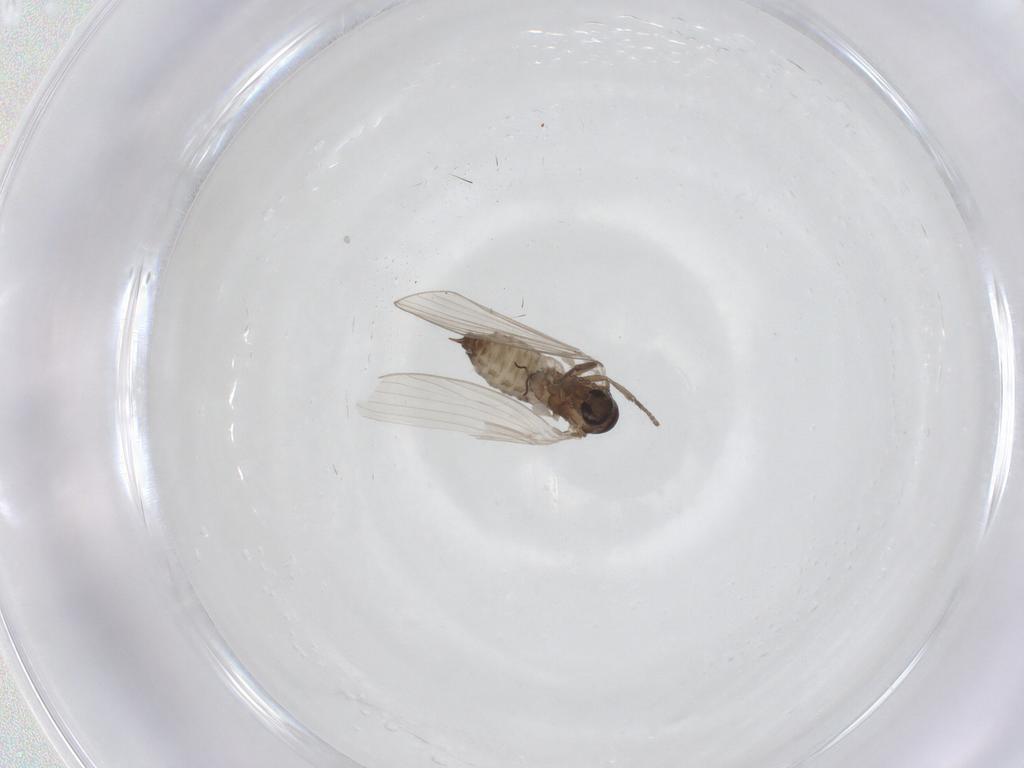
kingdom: Animalia
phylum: Arthropoda
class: Insecta
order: Diptera
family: Psychodidae
